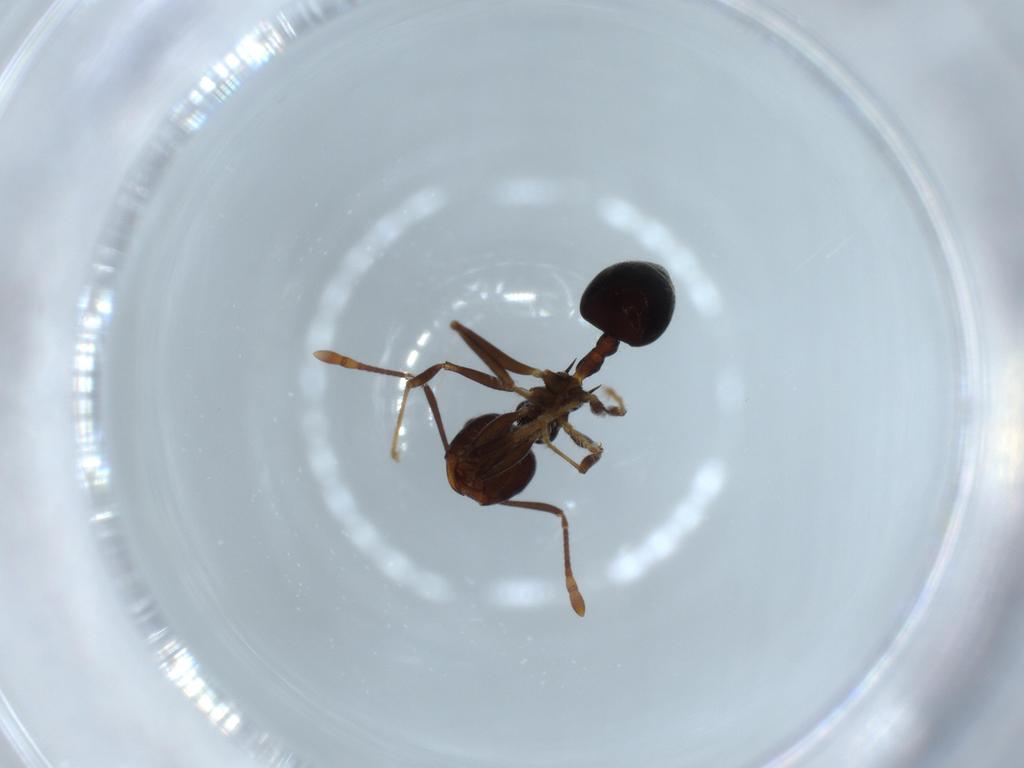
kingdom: Animalia
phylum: Arthropoda
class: Insecta
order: Hymenoptera
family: Formicidae
